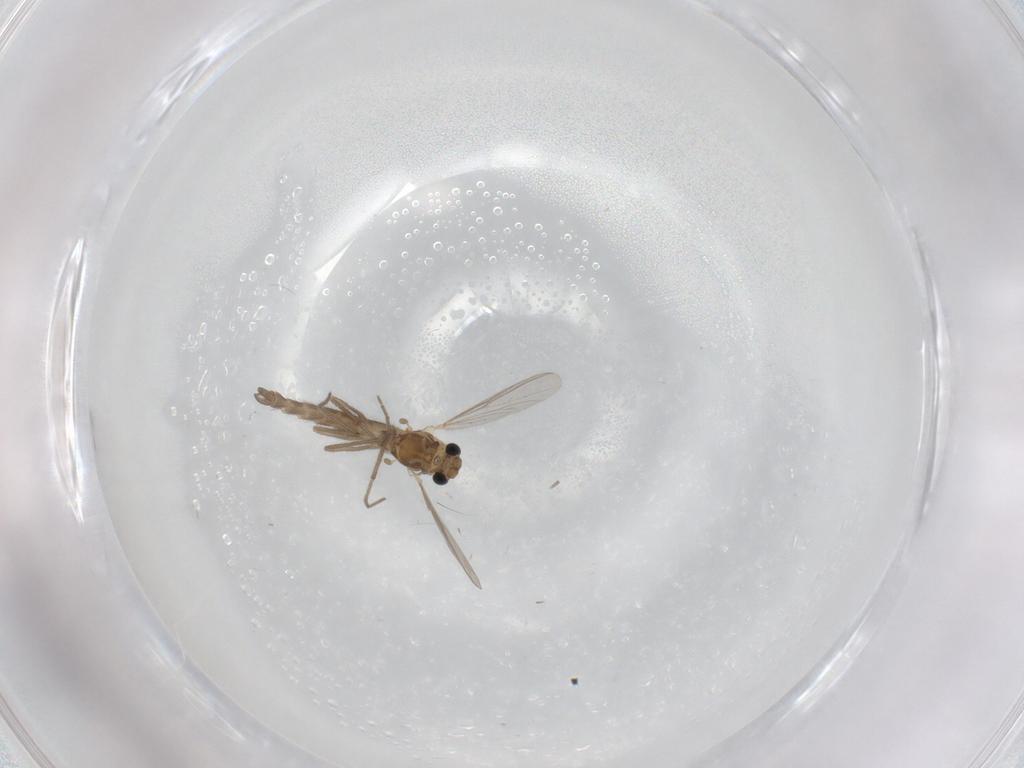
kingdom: Animalia
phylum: Arthropoda
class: Insecta
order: Diptera
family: Chironomidae
